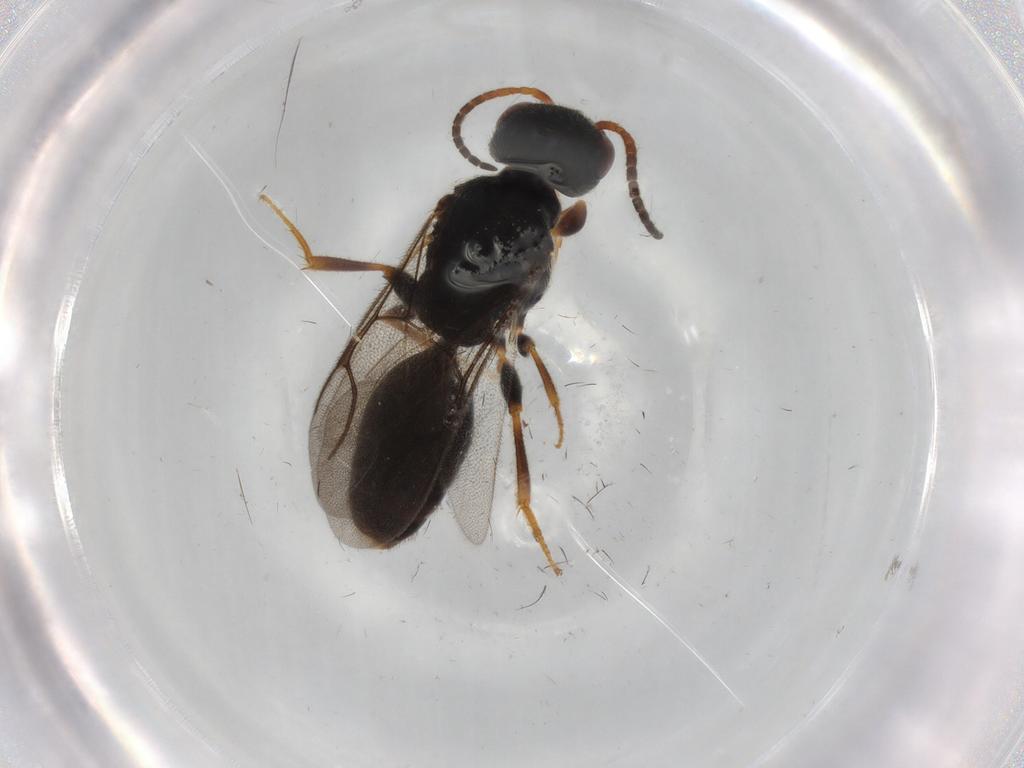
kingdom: Animalia
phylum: Arthropoda
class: Insecta
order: Hymenoptera
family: Bethylidae
